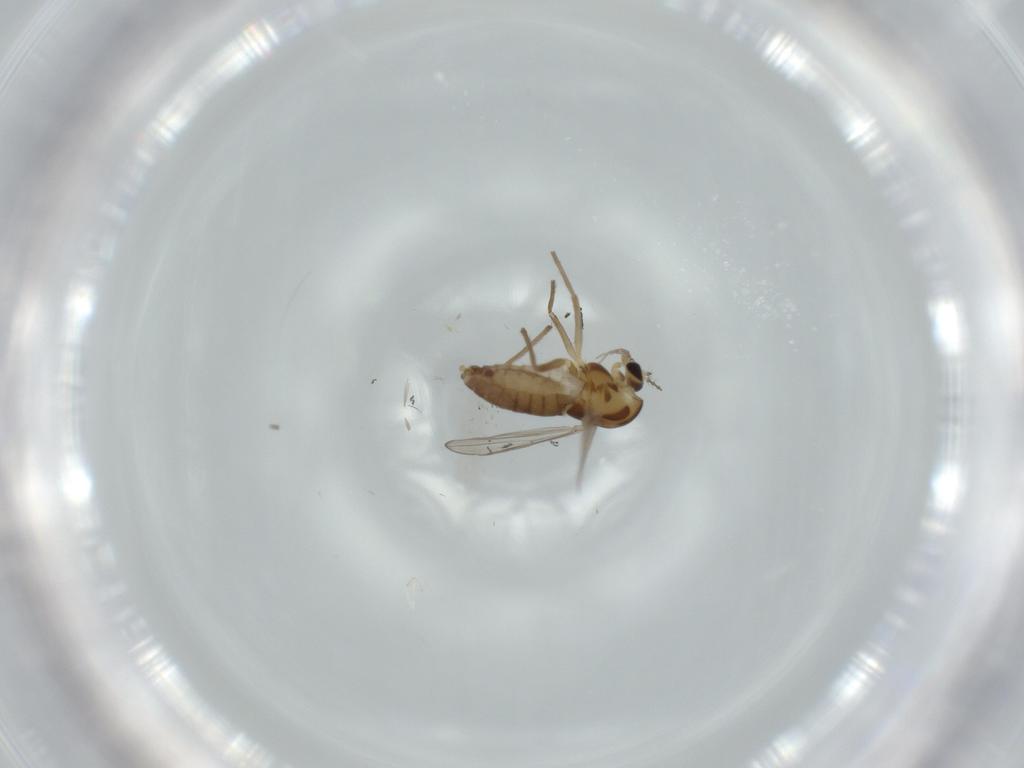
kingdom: Animalia
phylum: Arthropoda
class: Insecta
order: Diptera
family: Chironomidae
